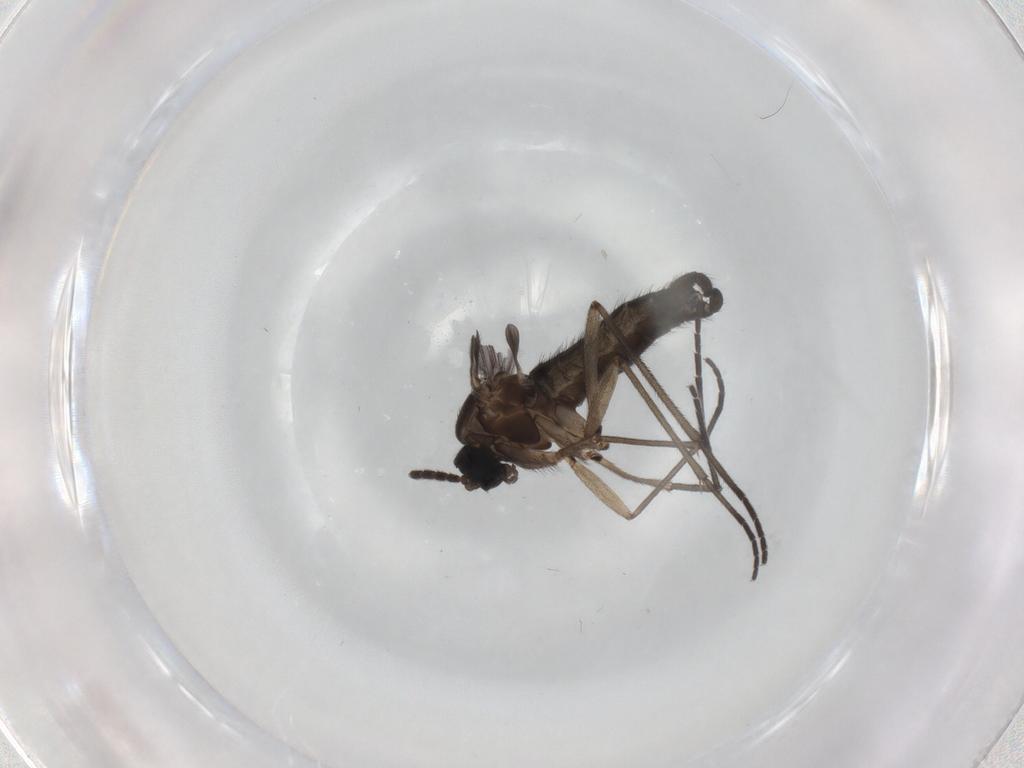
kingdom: Animalia
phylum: Arthropoda
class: Insecta
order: Diptera
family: Sciaridae
